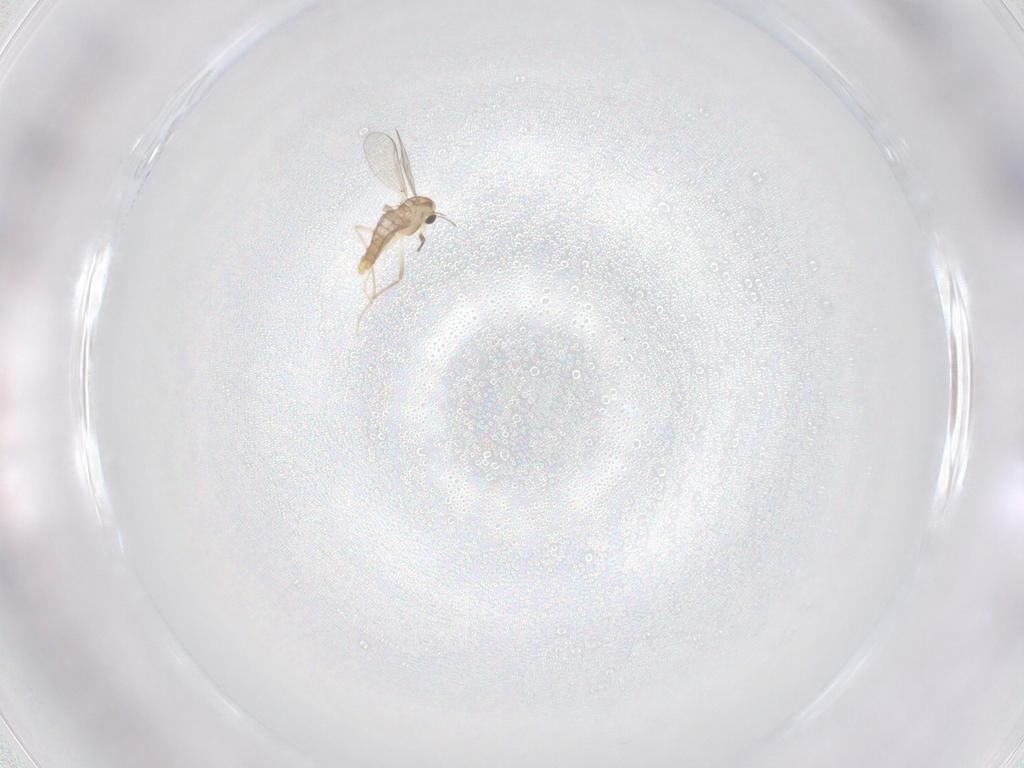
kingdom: Animalia
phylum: Arthropoda
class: Insecta
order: Diptera
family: Chironomidae
